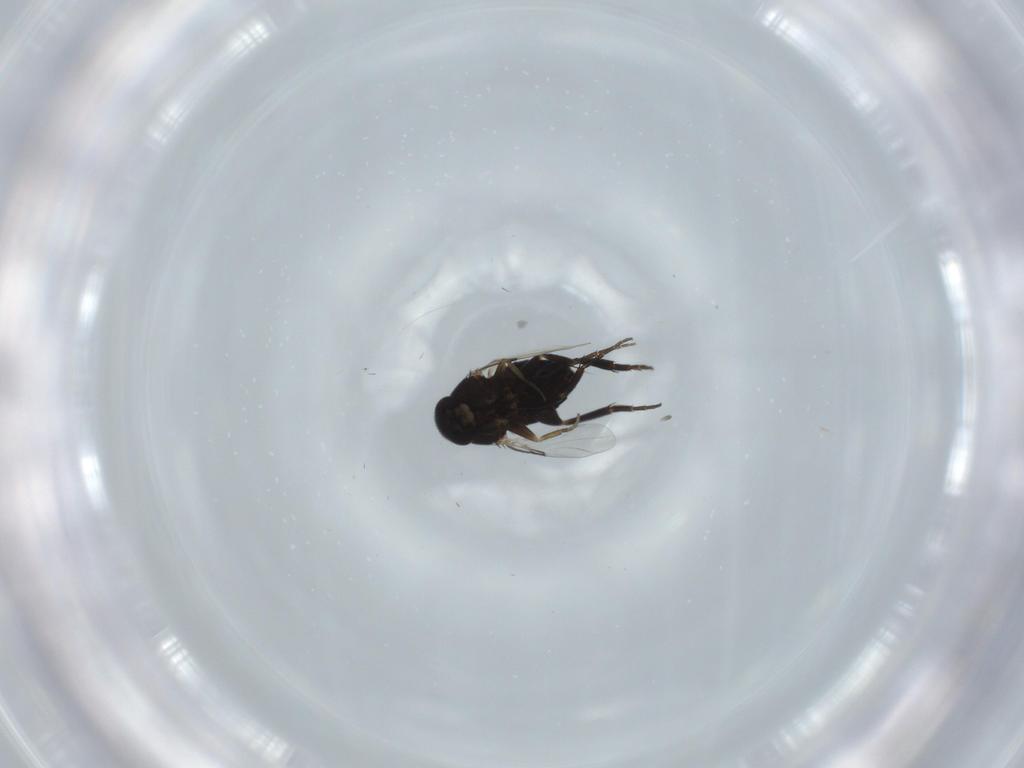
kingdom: Animalia
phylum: Arthropoda
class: Insecta
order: Diptera
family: Phoridae
